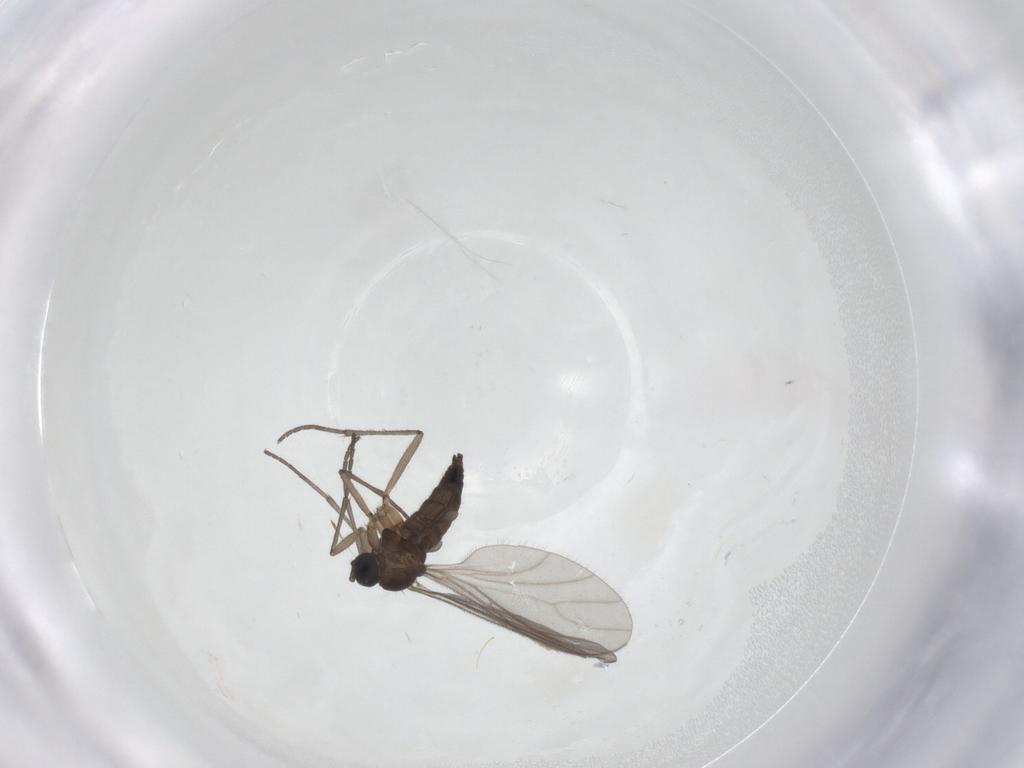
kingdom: Animalia
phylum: Arthropoda
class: Insecta
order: Diptera
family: Sciaridae
